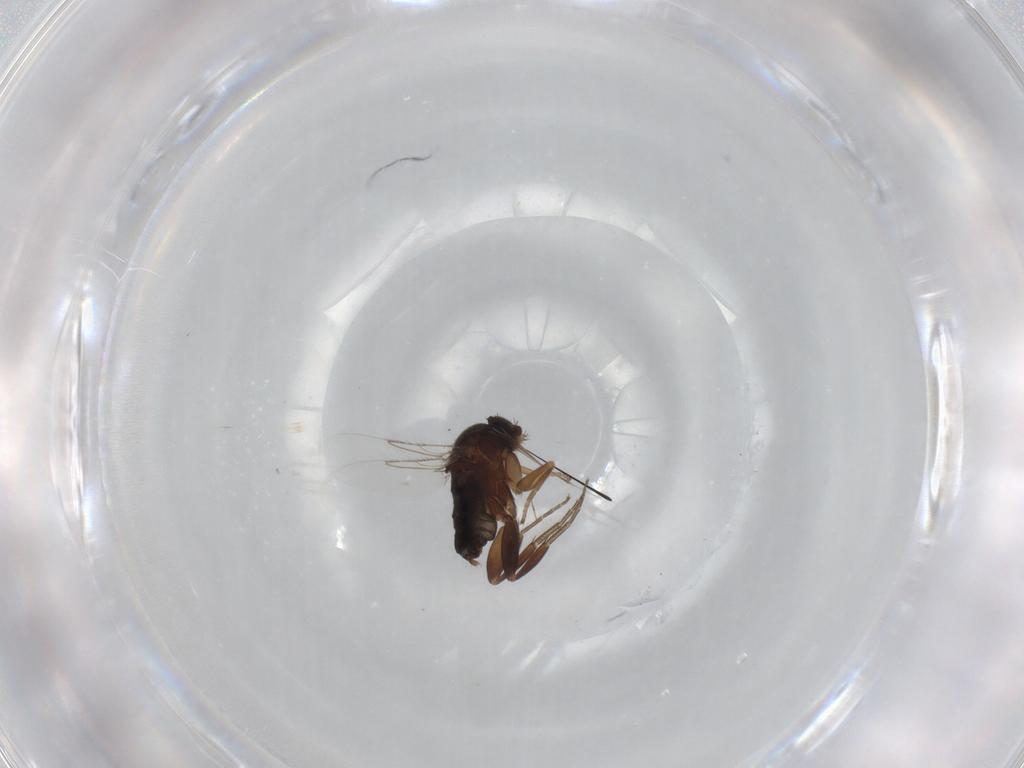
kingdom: Animalia
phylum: Arthropoda
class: Insecta
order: Diptera
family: Phoridae
